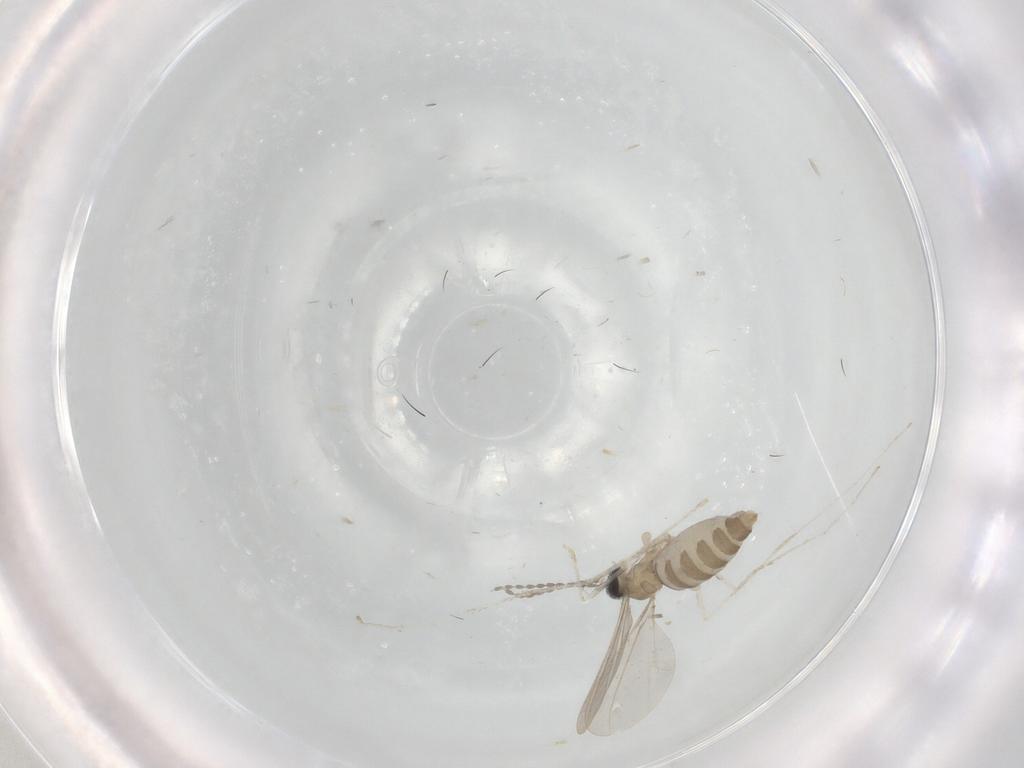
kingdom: Animalia
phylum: Arthropoda
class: Insecta
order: Diptera
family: Cecidomyiidae
